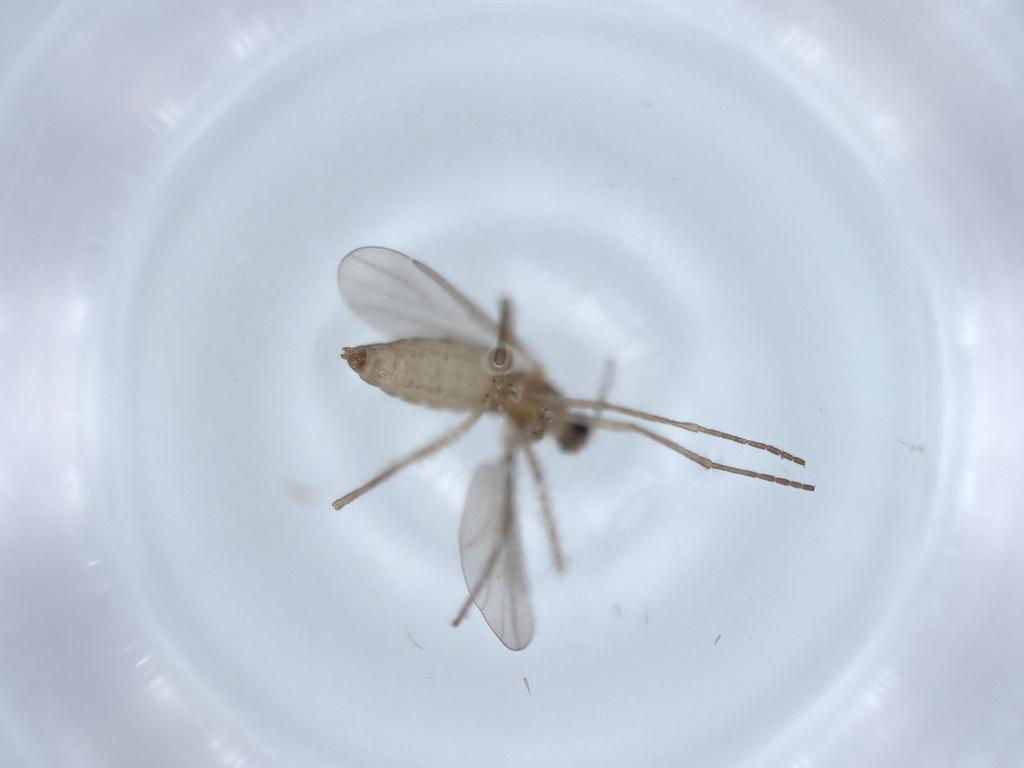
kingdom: Animalia
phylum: Arthropoda
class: Insecta
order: Diptera
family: Cecidomyiidae
